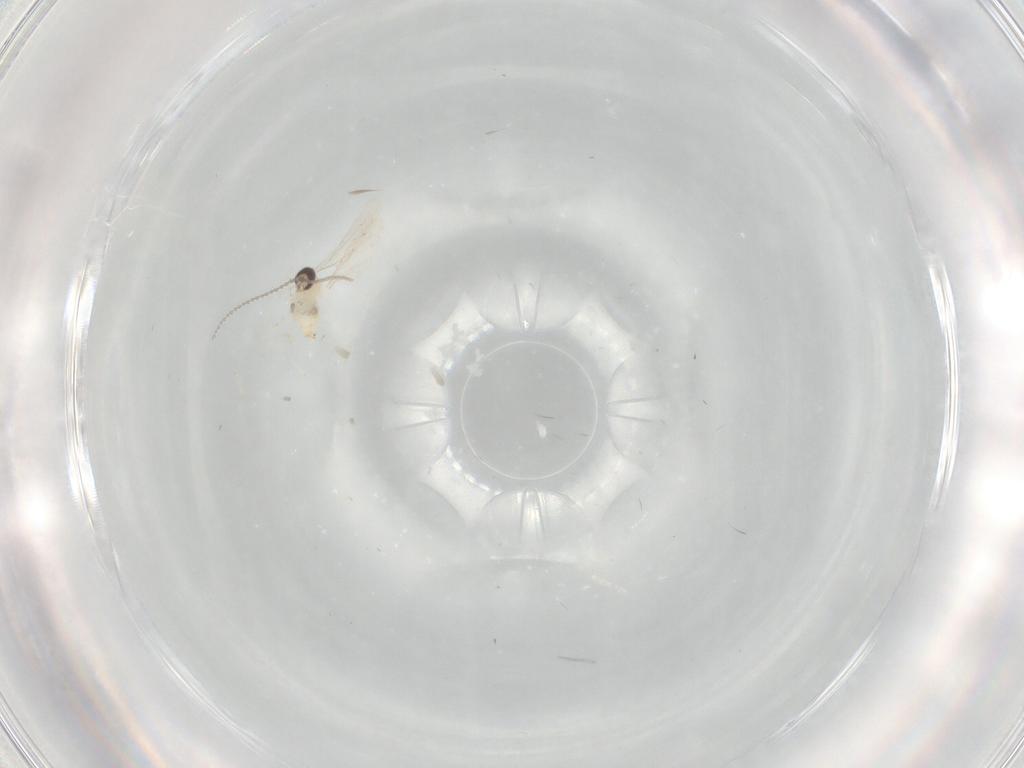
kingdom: Animalia
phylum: Arthropoda
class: Insecta
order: Diptera
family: Cecidomyiidae
